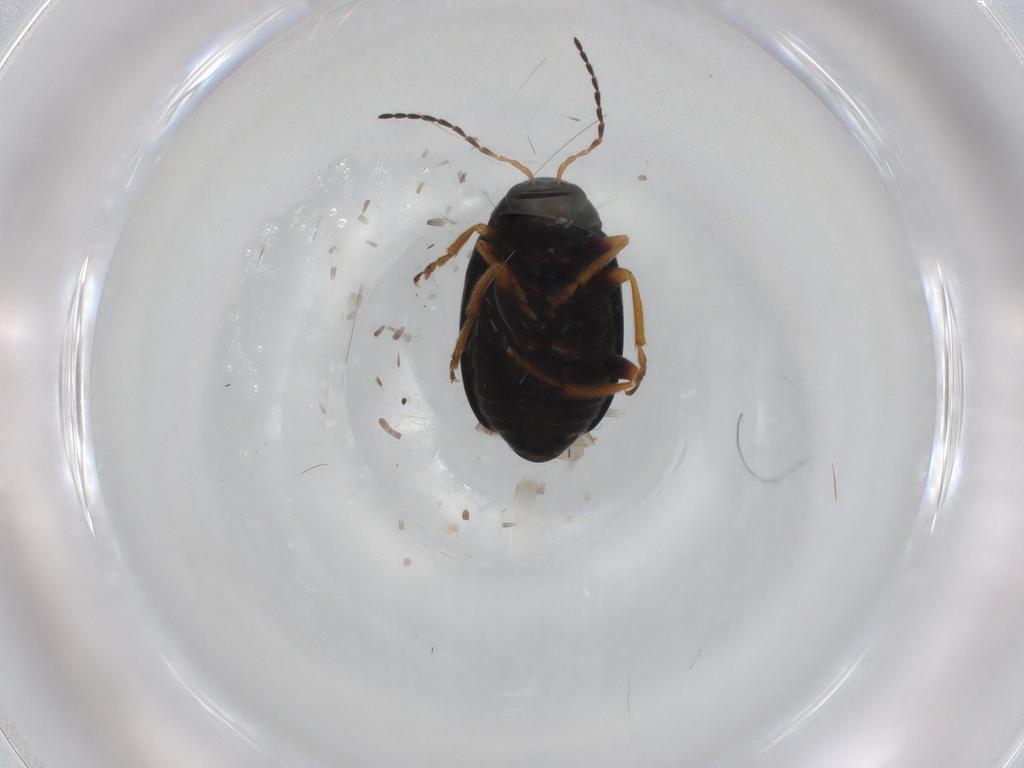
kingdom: Animalia
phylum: Arthropoda
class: Insecta
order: Coleoptera
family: Chrysomelidae
